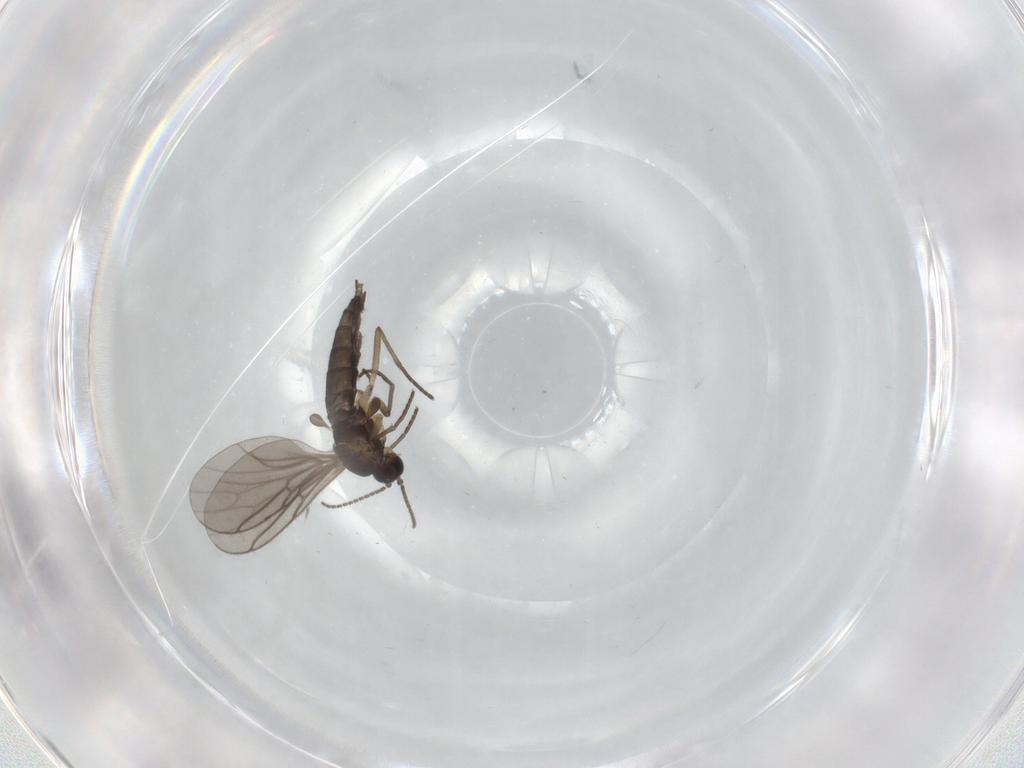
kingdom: Animalia
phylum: Arthropoda
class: Insecta
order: Diptera
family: Sciaridae
